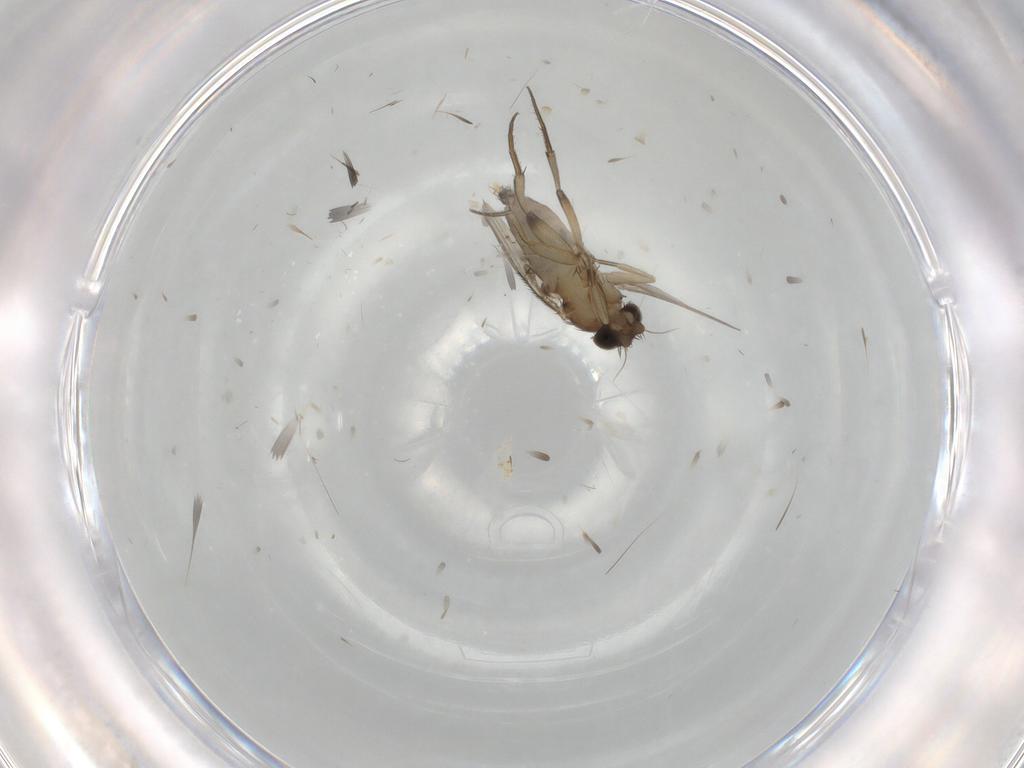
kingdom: Animalia
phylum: Arthropoda
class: Insecta
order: Diptera
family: Phoridae
